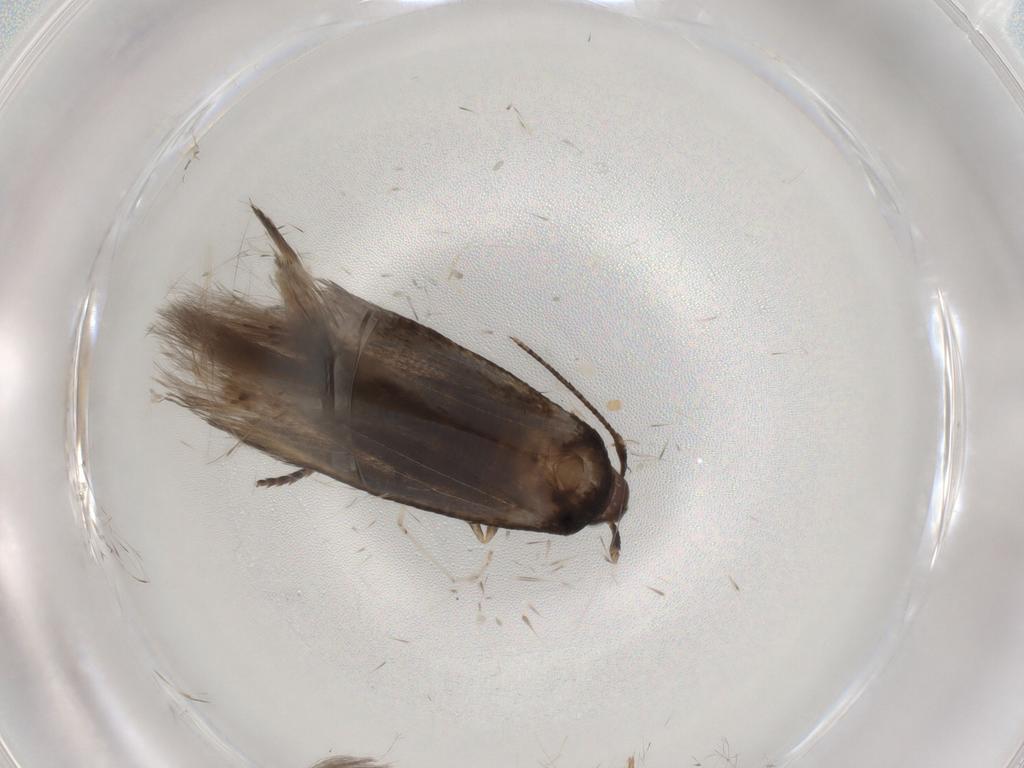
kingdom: Animalia
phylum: Arthropoda
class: Insecta
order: Lepidoptera
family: Cosmopterigidae
